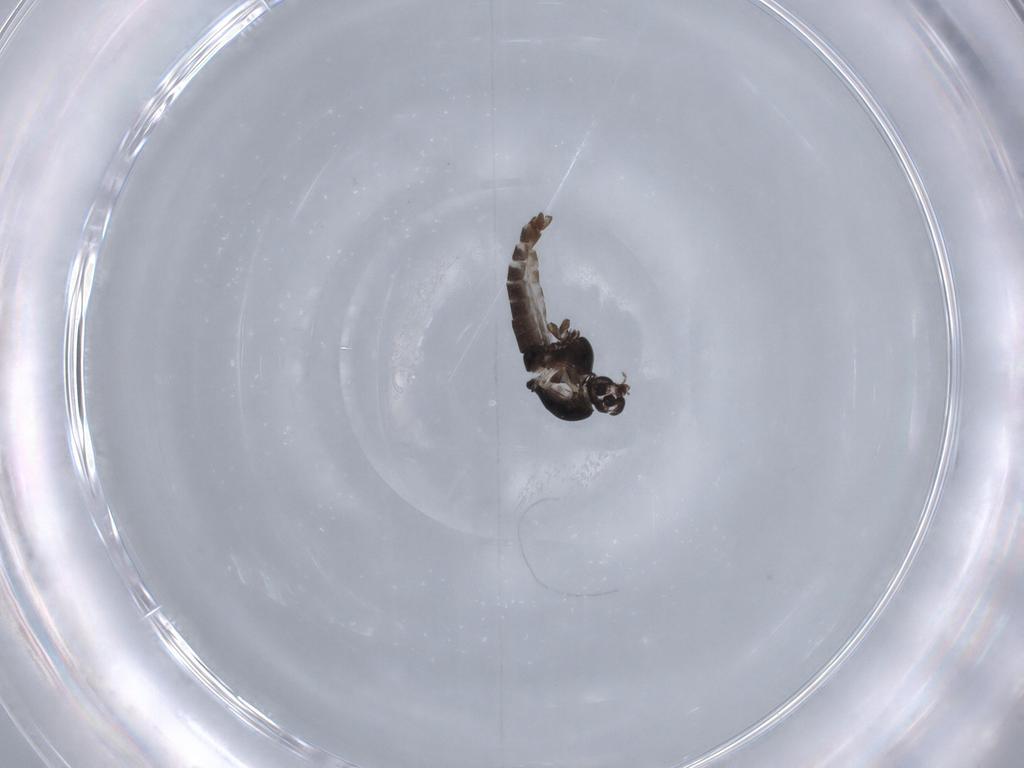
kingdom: Animalia
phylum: Arthropoda
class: Insecta
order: Diptera
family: Chironomidae
